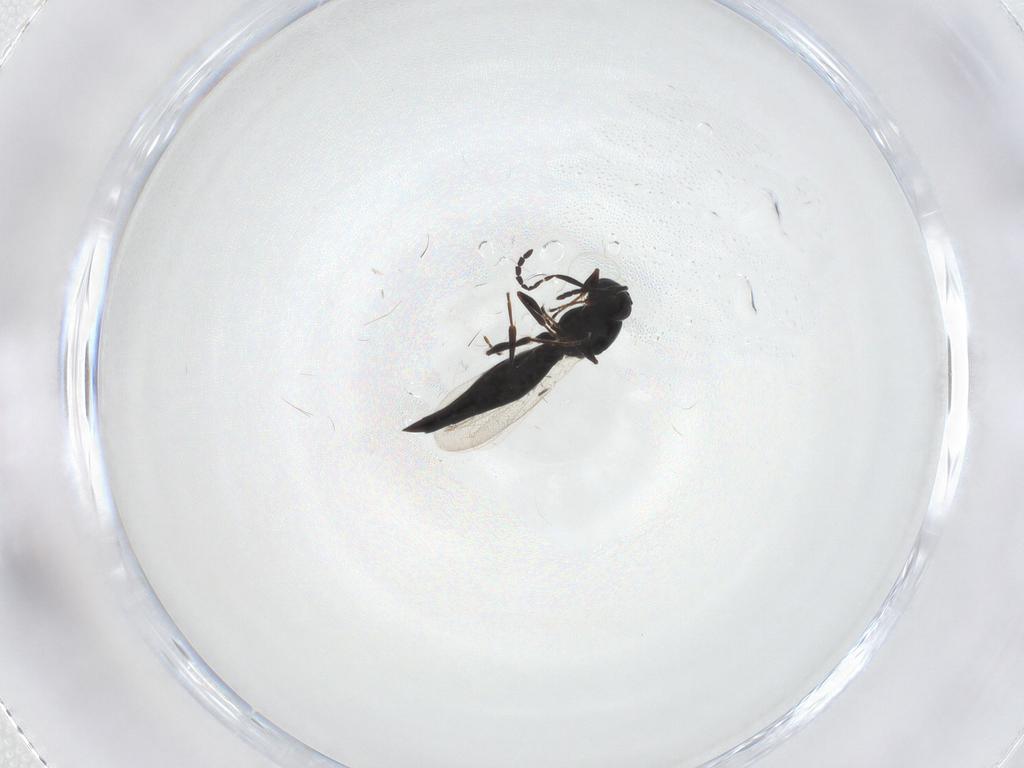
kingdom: Animalia
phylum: Arthropoda
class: Insecta
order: Hymenoptera
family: Platygastridae
